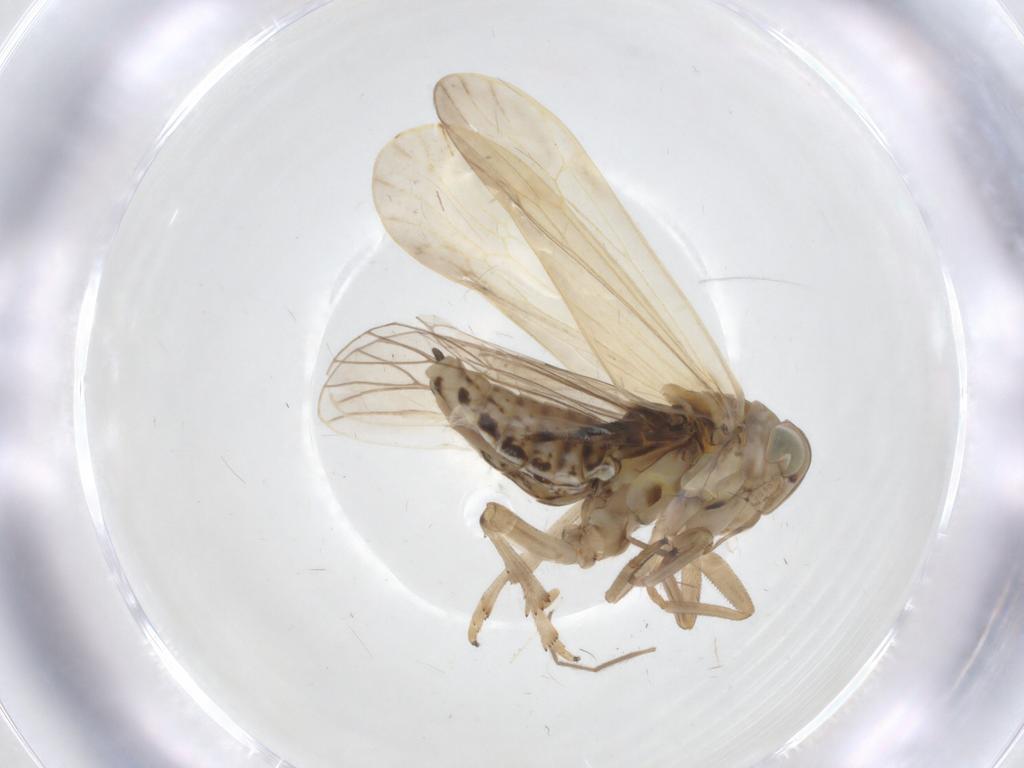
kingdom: Animalia
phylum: Arthropoda
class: Insecta
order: Hemiptera
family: Delphacidae
